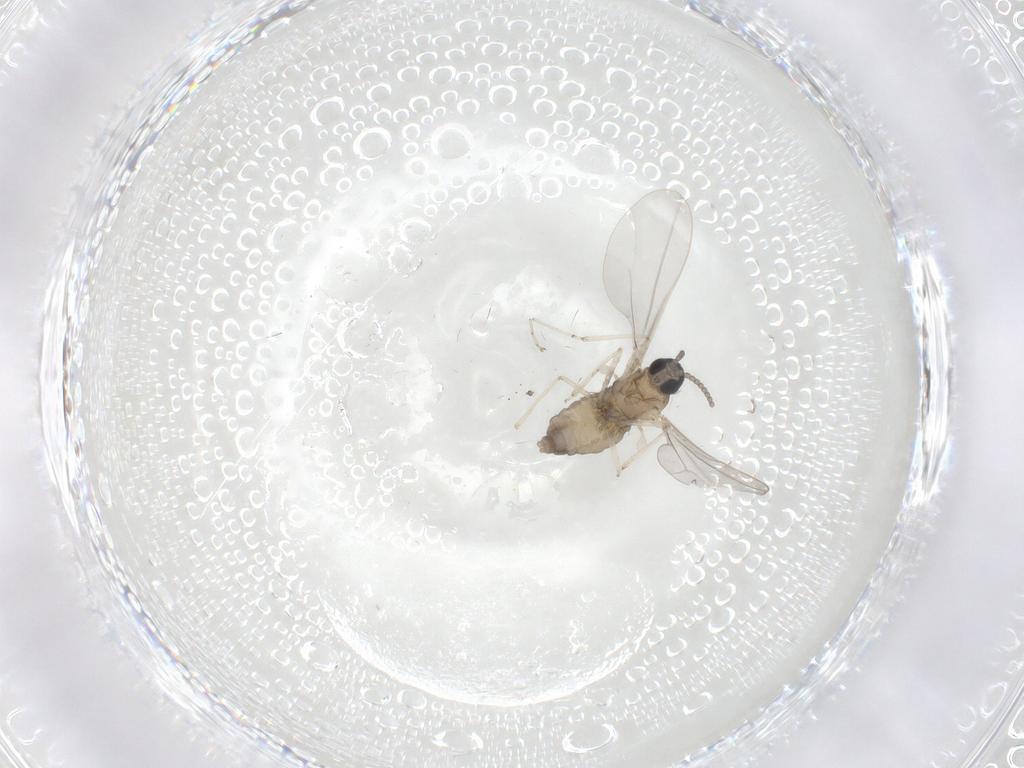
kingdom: Animalia
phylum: Arthropoda
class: Insecta
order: Diptera
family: Cecidomyiidae
